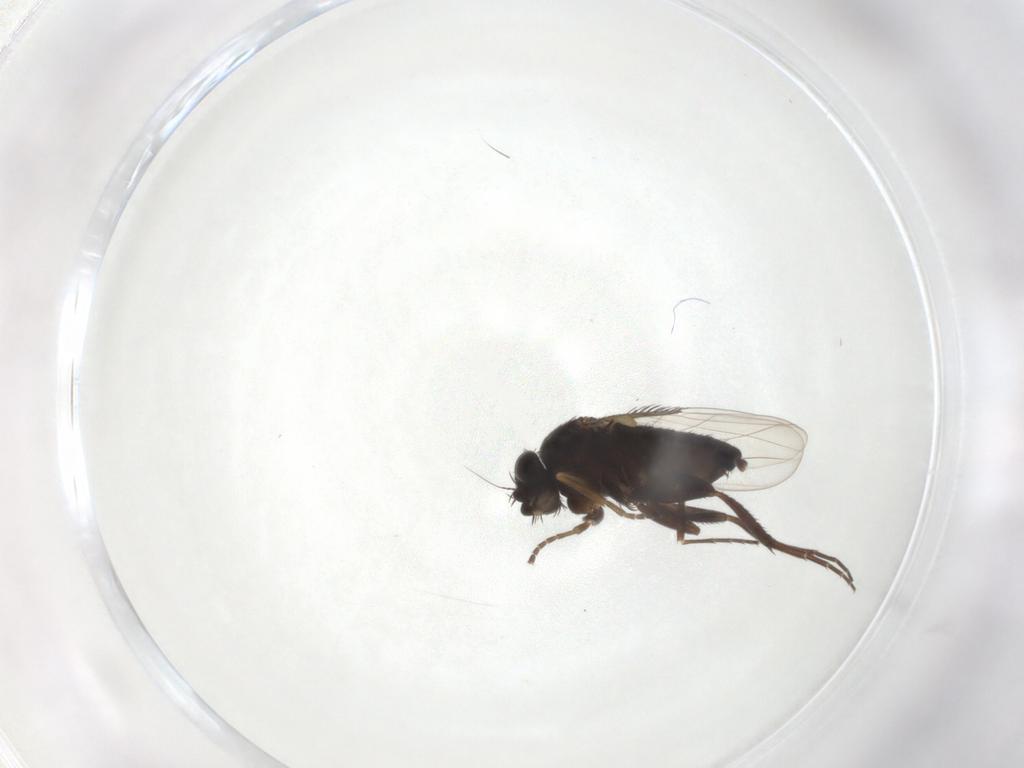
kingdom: Animalia
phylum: Arthropoda
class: Insecta
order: Diptera
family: Phoridae
